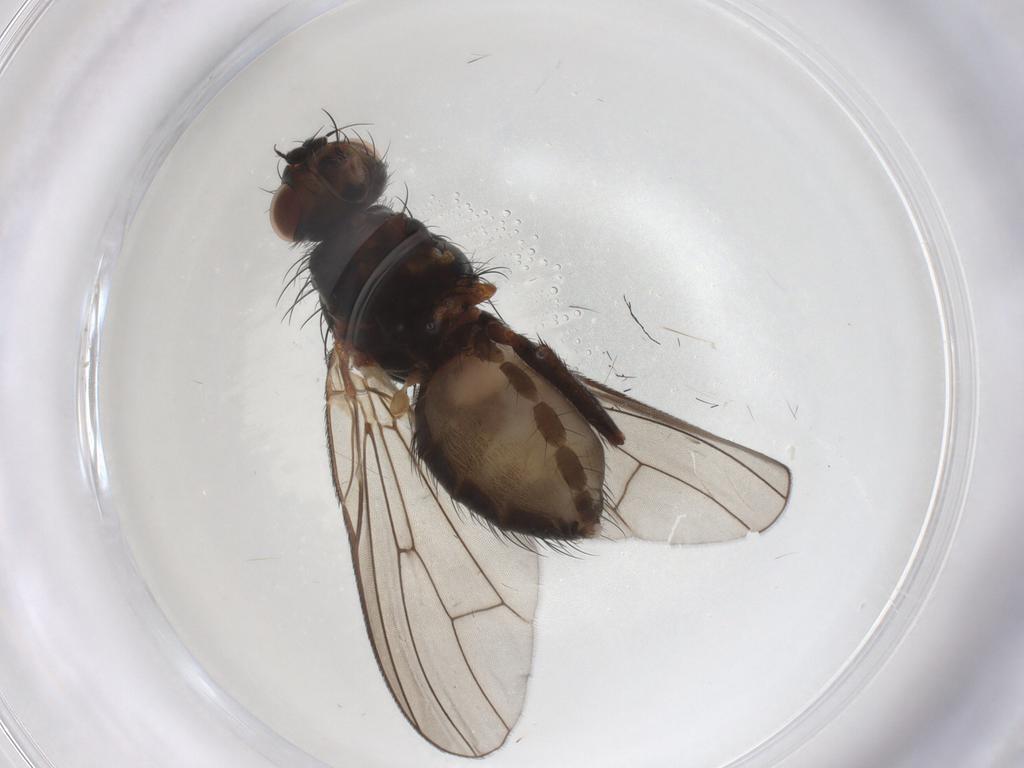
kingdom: Animalia
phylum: Arthropoda
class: Insecta
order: Diptera
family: Anthomyiidae
